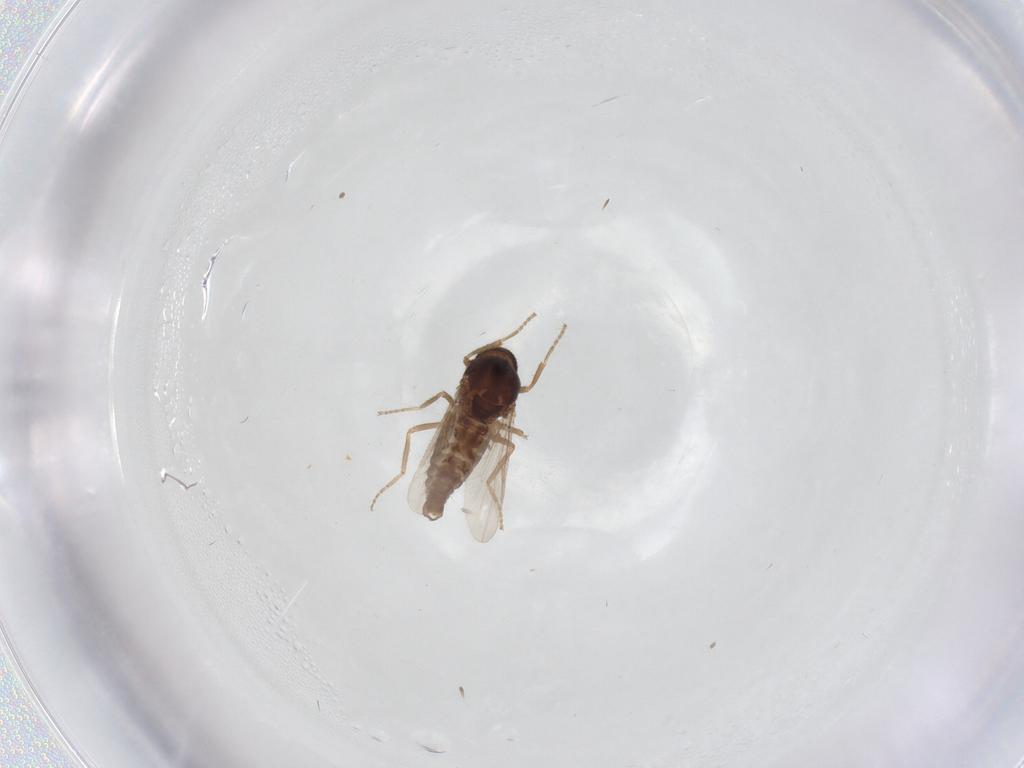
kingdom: Animalia
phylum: Arthropoda
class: Insecta
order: Diptera
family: Ceratopogonidae
